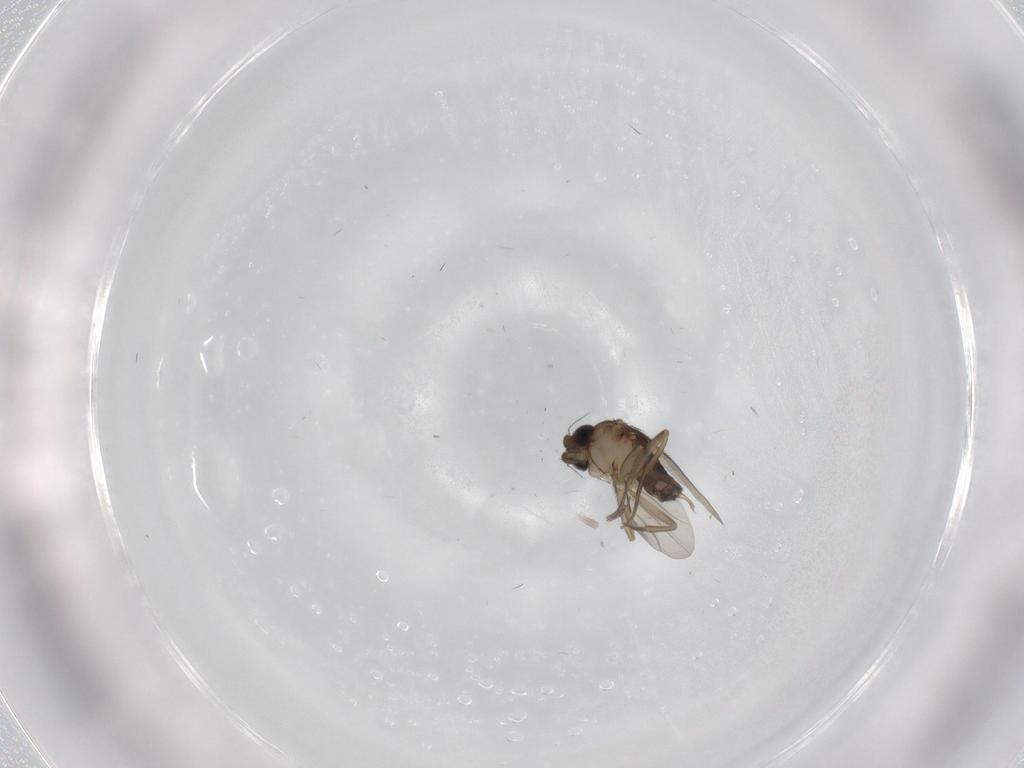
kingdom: Animalia
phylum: Arthropoda
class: Insecta
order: Diptera
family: Phoridae
